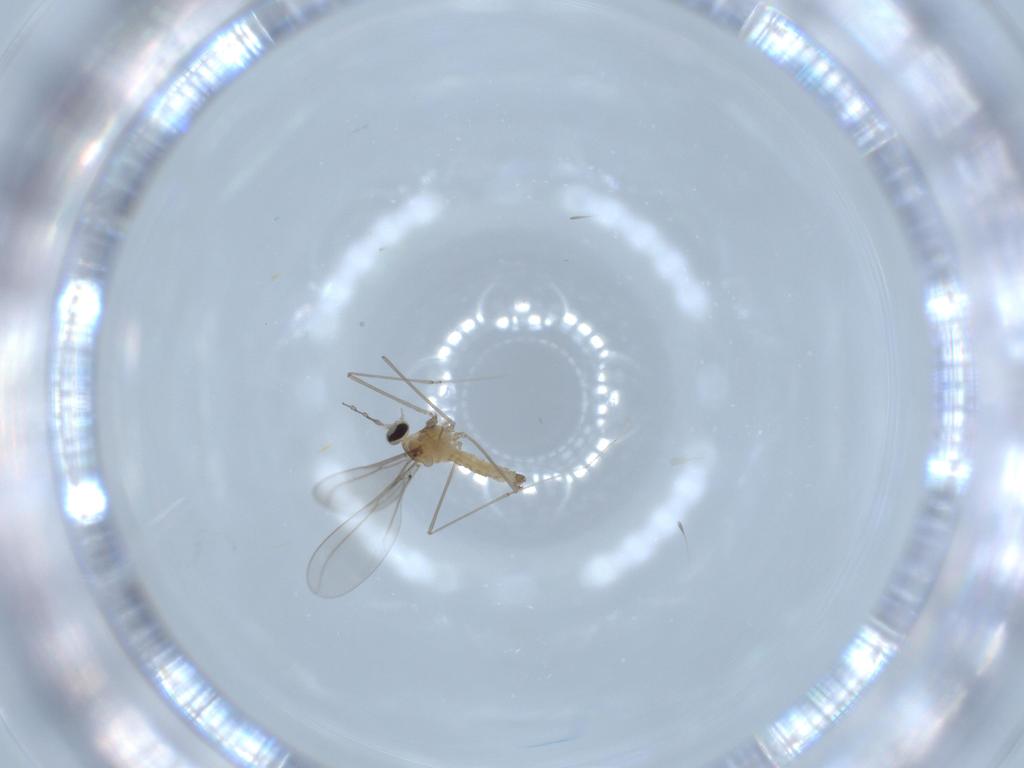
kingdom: Animalia
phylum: Arthropoda
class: Insecta
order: Diptera
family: Cecidomyiidae
